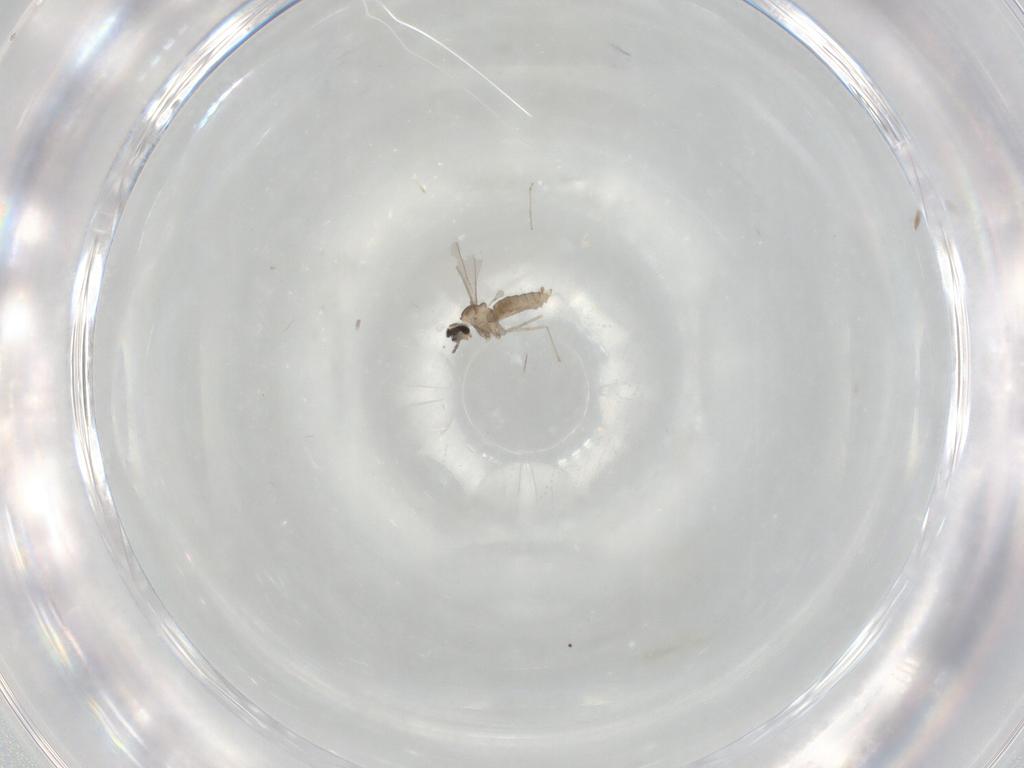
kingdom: Animalia
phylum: Arthropoda
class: Insecta
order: Diptera
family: Cecidomyiidae
